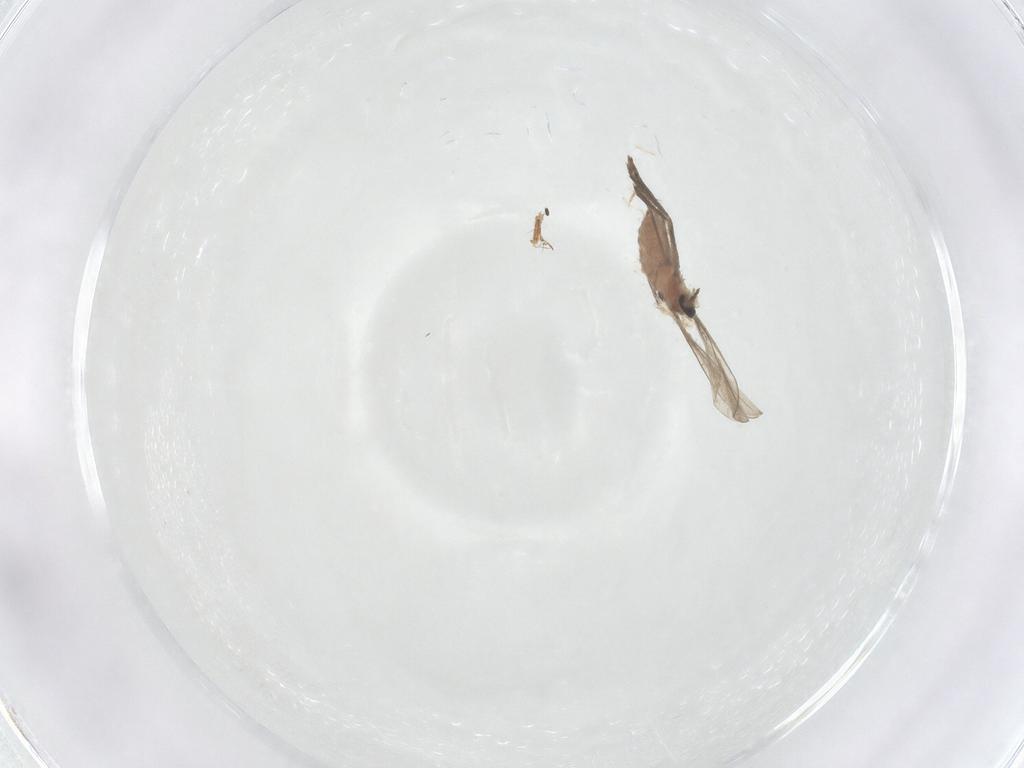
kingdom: Animalia
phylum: Arthropoda
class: Insecta
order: Diptera
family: Cecidomyiidae
